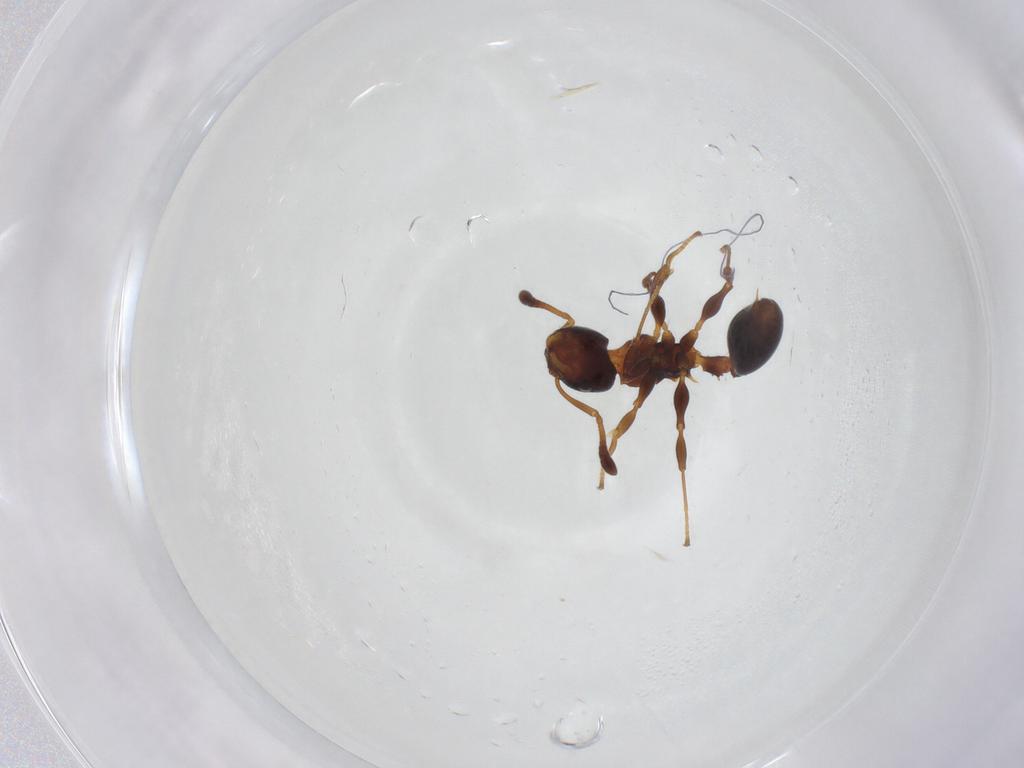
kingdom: Animalia
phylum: Arthropoda
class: Insecta
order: Hymenoptera
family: Formicidae
